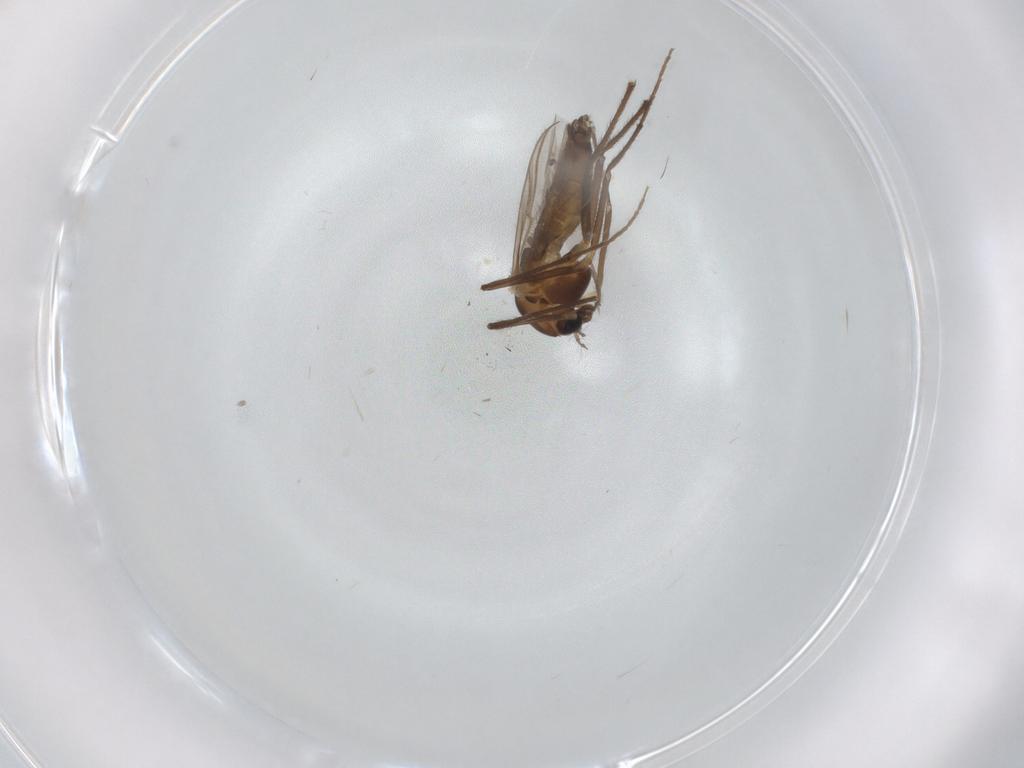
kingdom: Animalia
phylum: Arthropoda
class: Insecta
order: Diptera
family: Chironomidae
